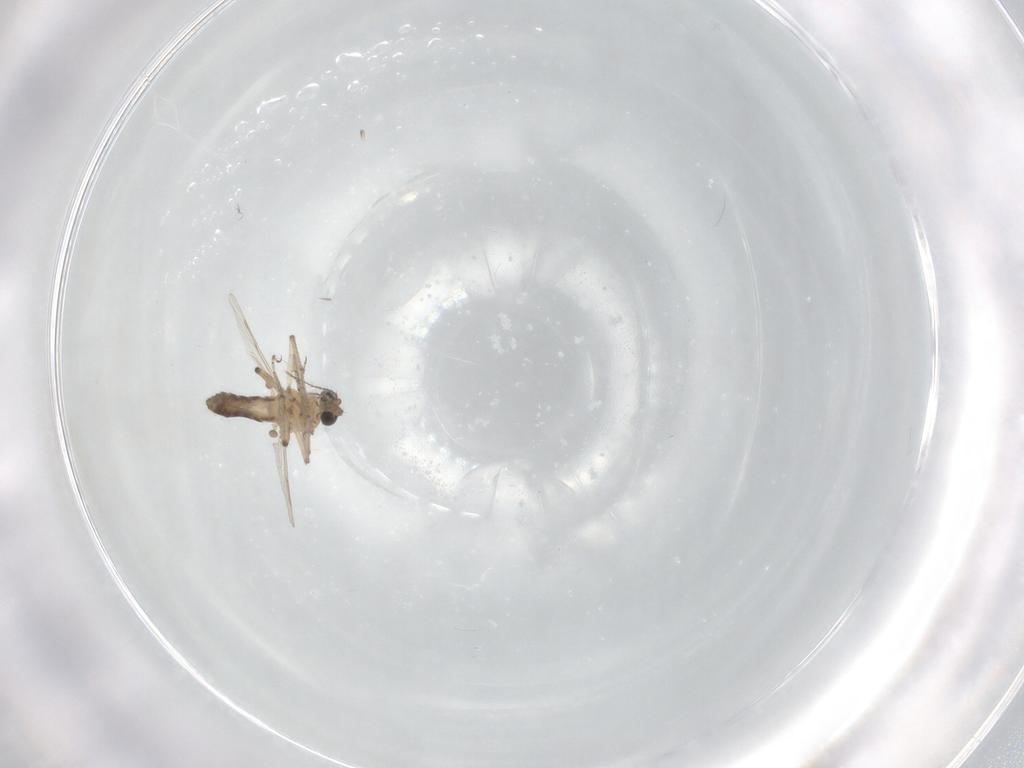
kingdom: Animalia
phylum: Arthropoda
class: Insecta
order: Diptera
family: Ceratopogonidae
